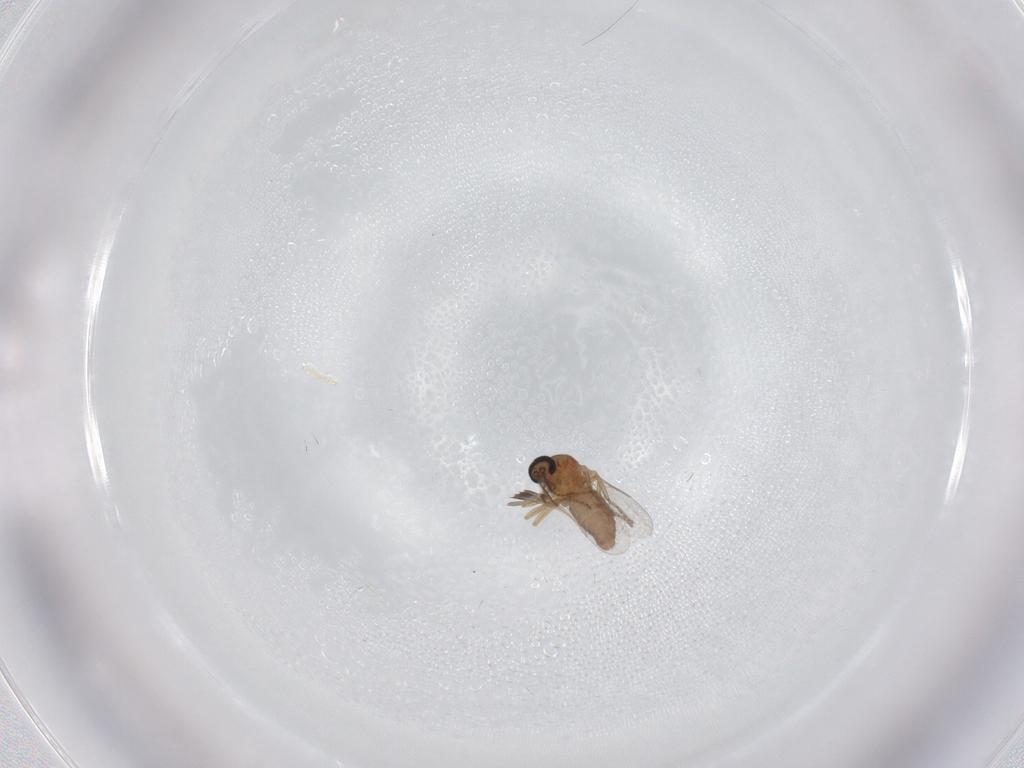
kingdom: Animalia
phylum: Arthropoda
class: Insecta
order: Diptera
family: Ceratopogonidae
